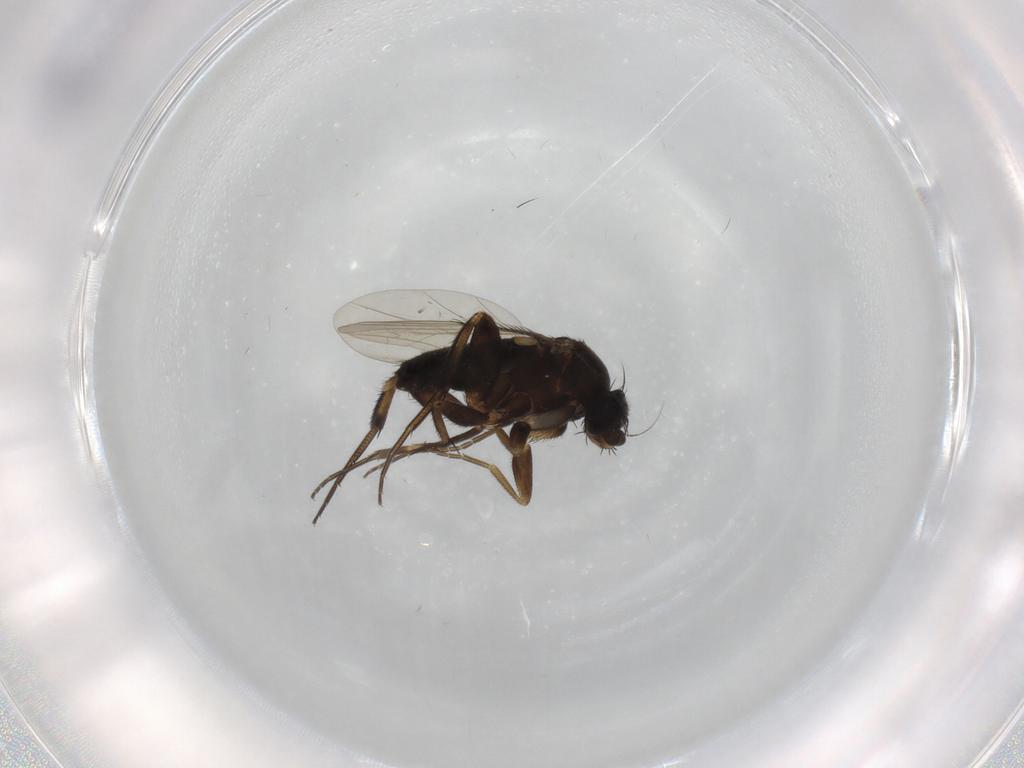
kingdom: Animalia
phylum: Arthropoda
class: Insecta
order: Diptera
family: Phoridae
